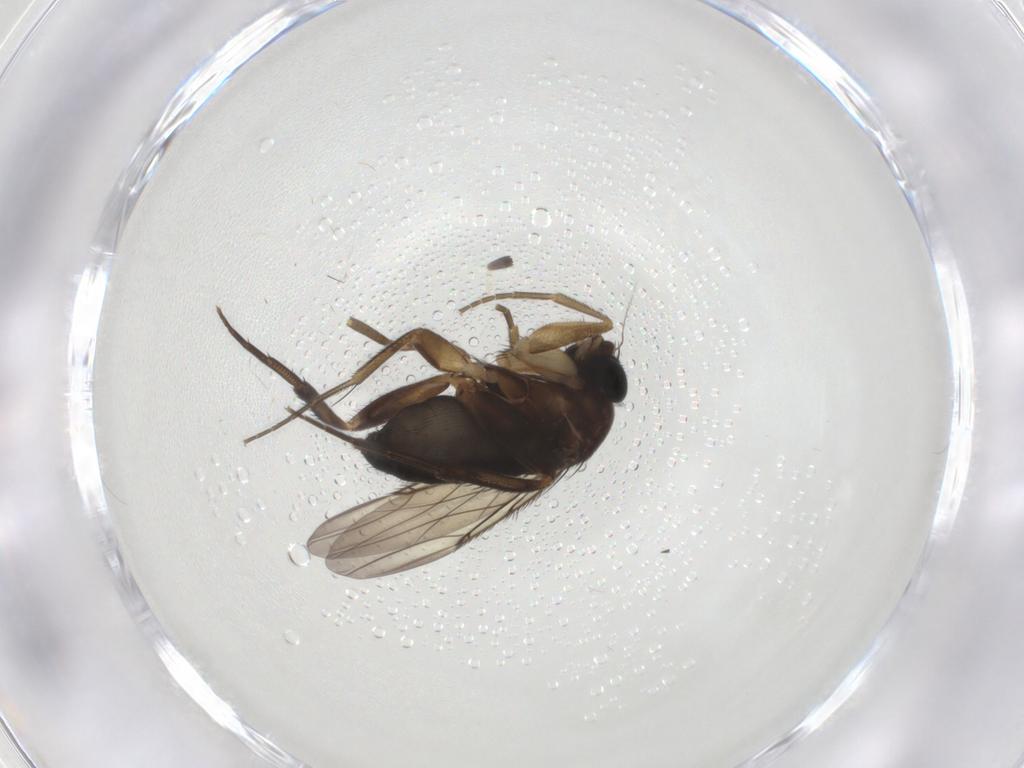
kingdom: Animalia
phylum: Arthropoda
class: Insecta
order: Diptera
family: Phoridae
